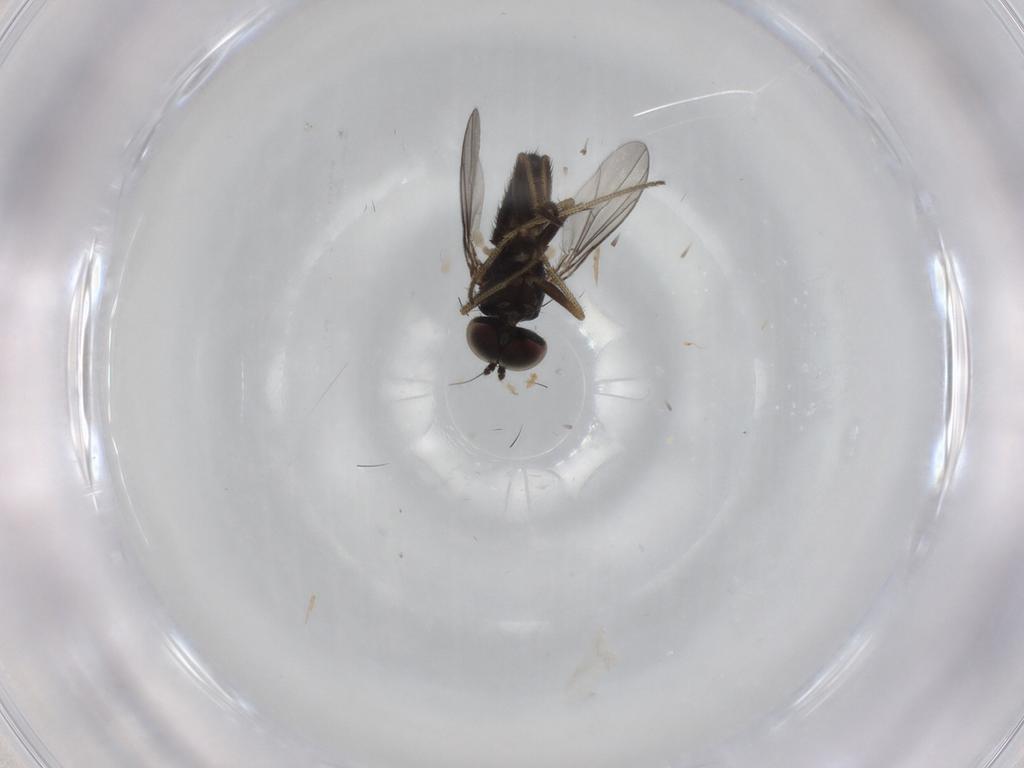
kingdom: Animalia
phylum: Arthropoda
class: Insecta
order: Diptera
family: Dolichopodidae
